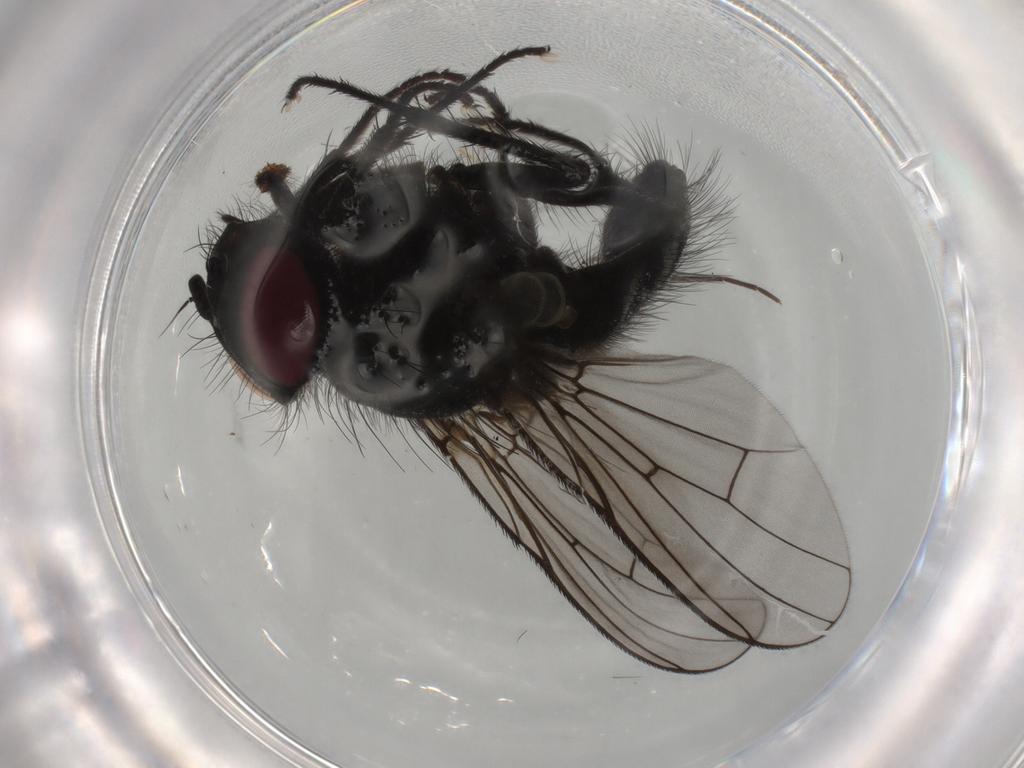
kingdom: Animalia
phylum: Arthropoda
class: Insecta
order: Diptera
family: Muscidae
